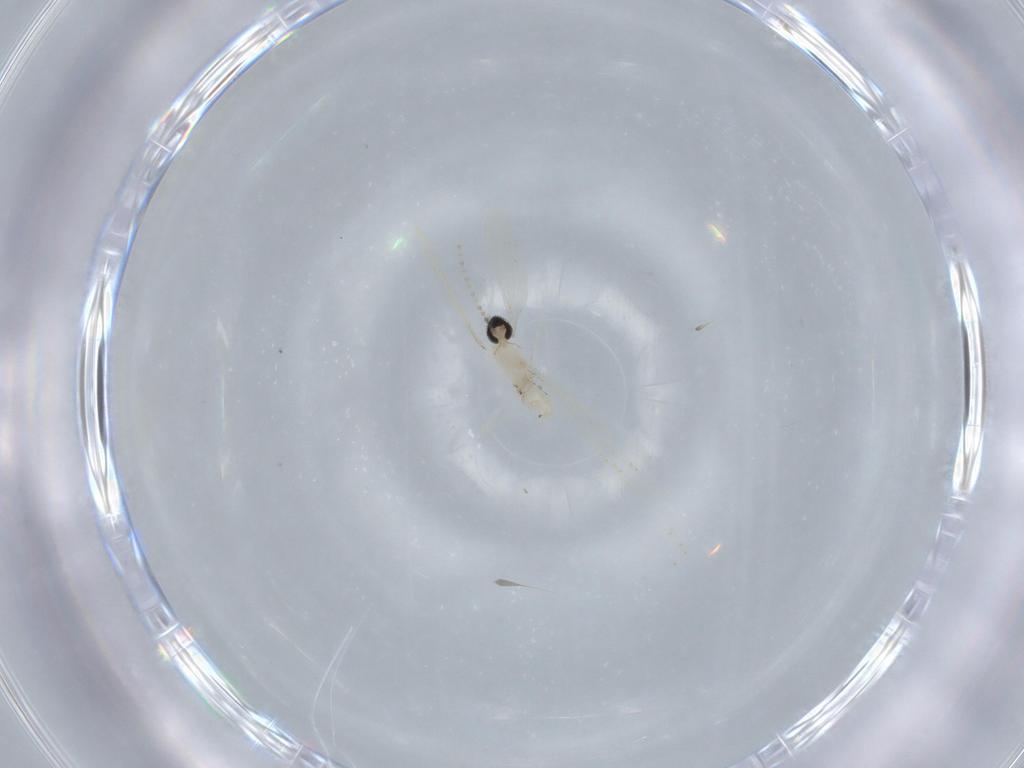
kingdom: Animalia
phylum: Arthropoda
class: Insecta
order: Diptera
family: Cecidomyiidae
